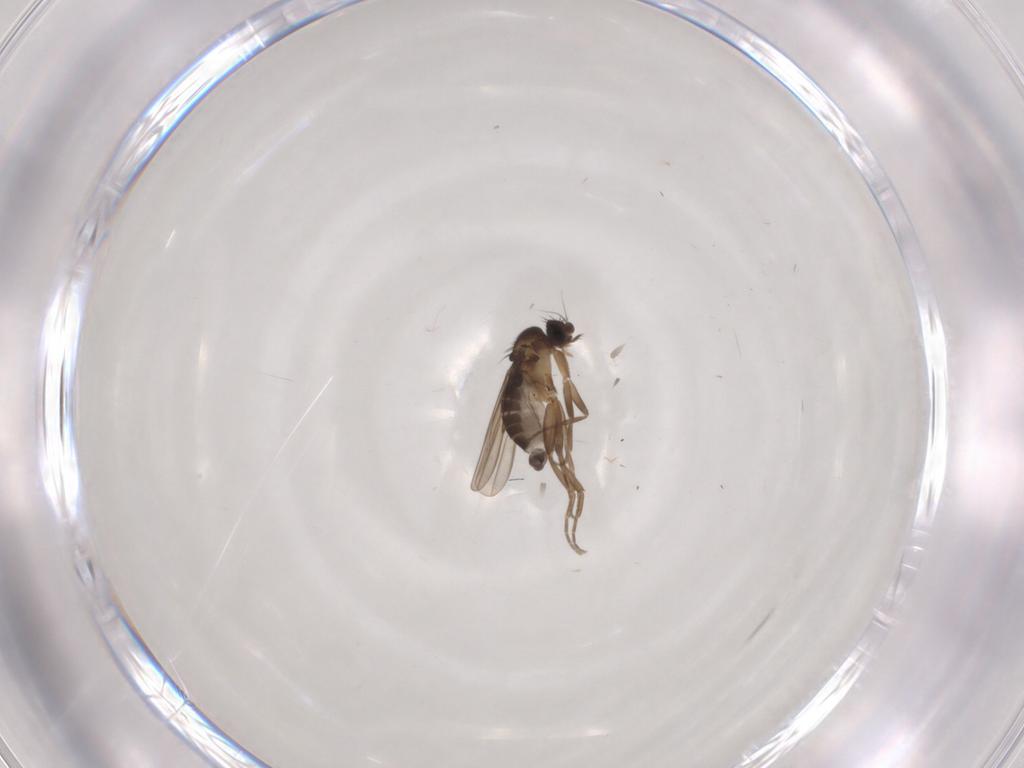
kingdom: Animalia
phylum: Arthropoda
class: Insecta
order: Diptera
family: Phoridae
